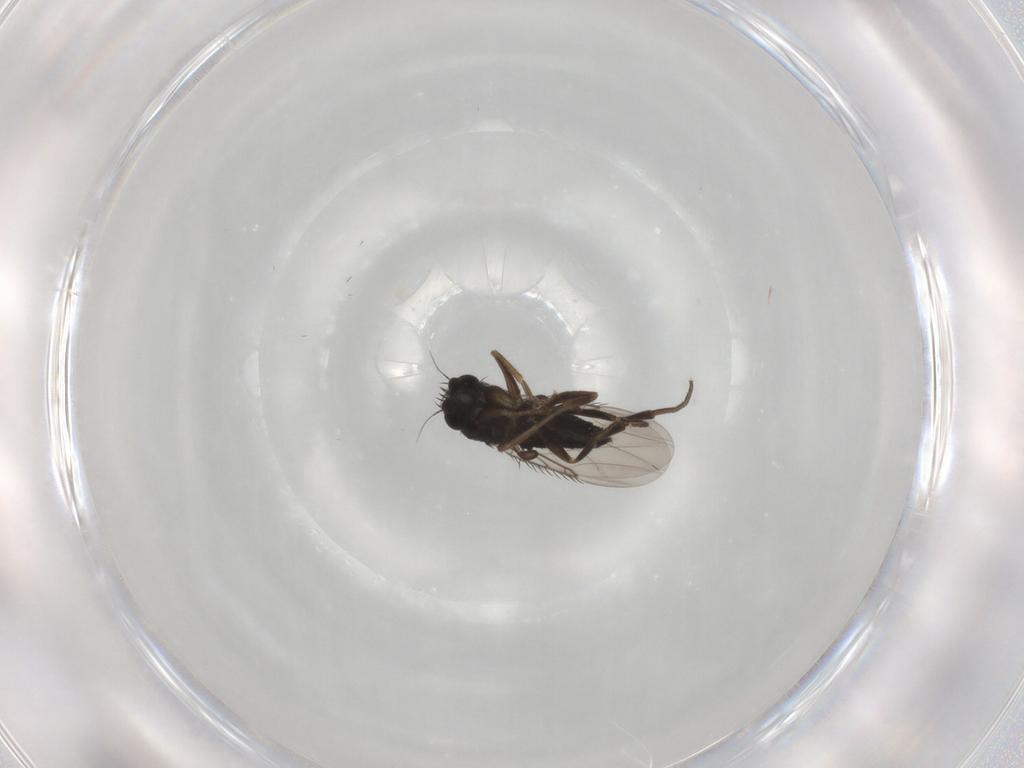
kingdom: Animalia
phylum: Arthropoda
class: Insecta
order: Diptera
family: Phoridae
